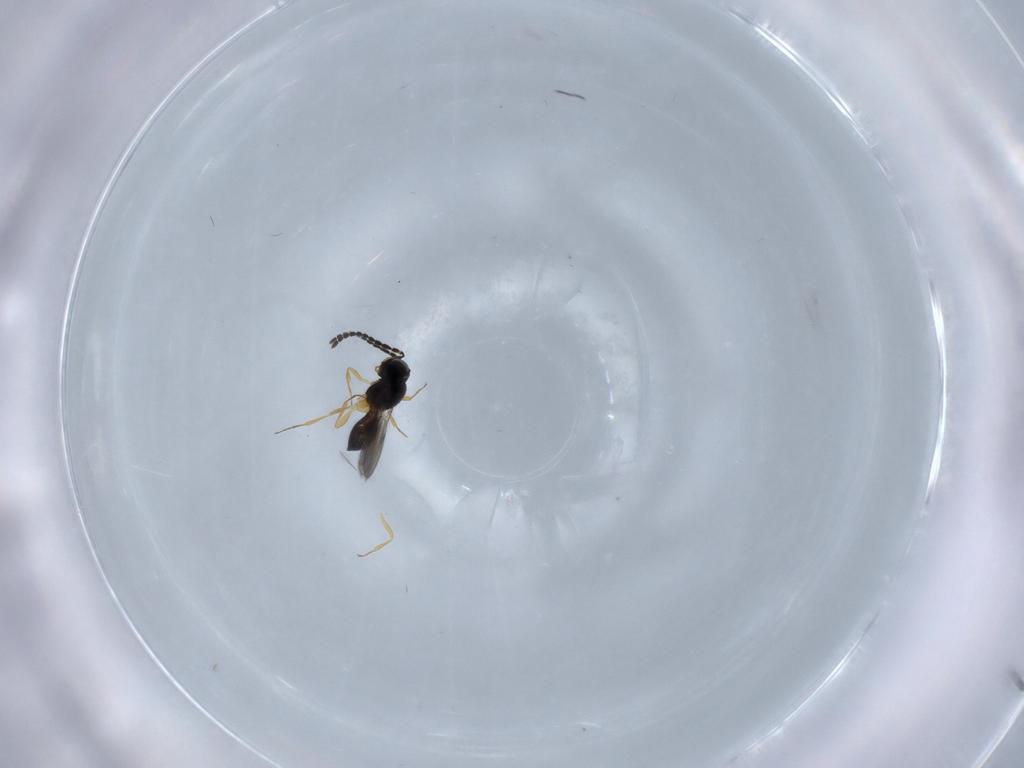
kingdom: Animalia
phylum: Arthropoda
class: Insecta
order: Hymenoptera
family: Scelionidae
